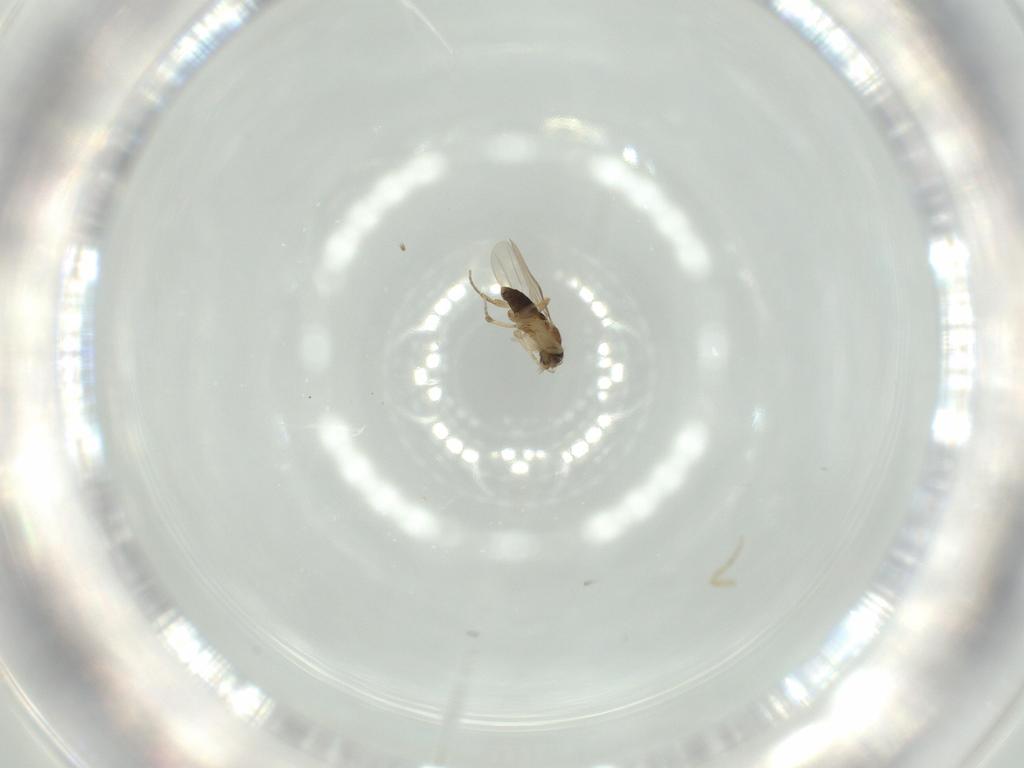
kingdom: Animalia
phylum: Arthropoda
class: Insecta
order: Diptera
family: Phoridae
